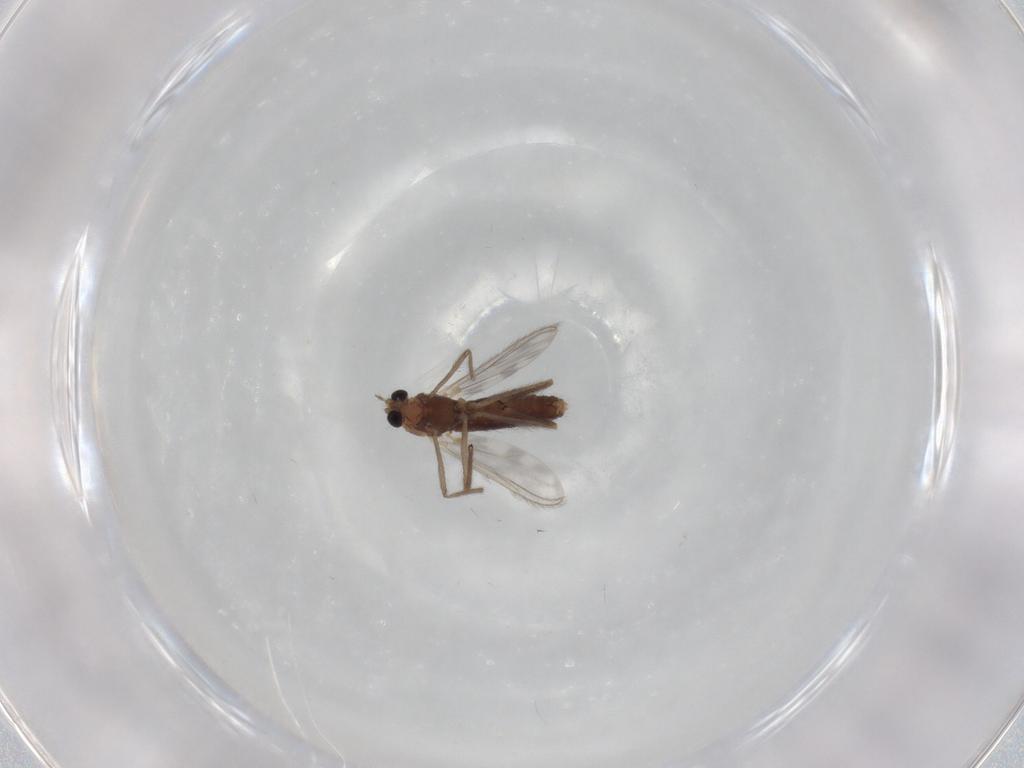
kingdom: Animalia
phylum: Arthropoda
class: Insecta
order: Diptera
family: Chironomidae
